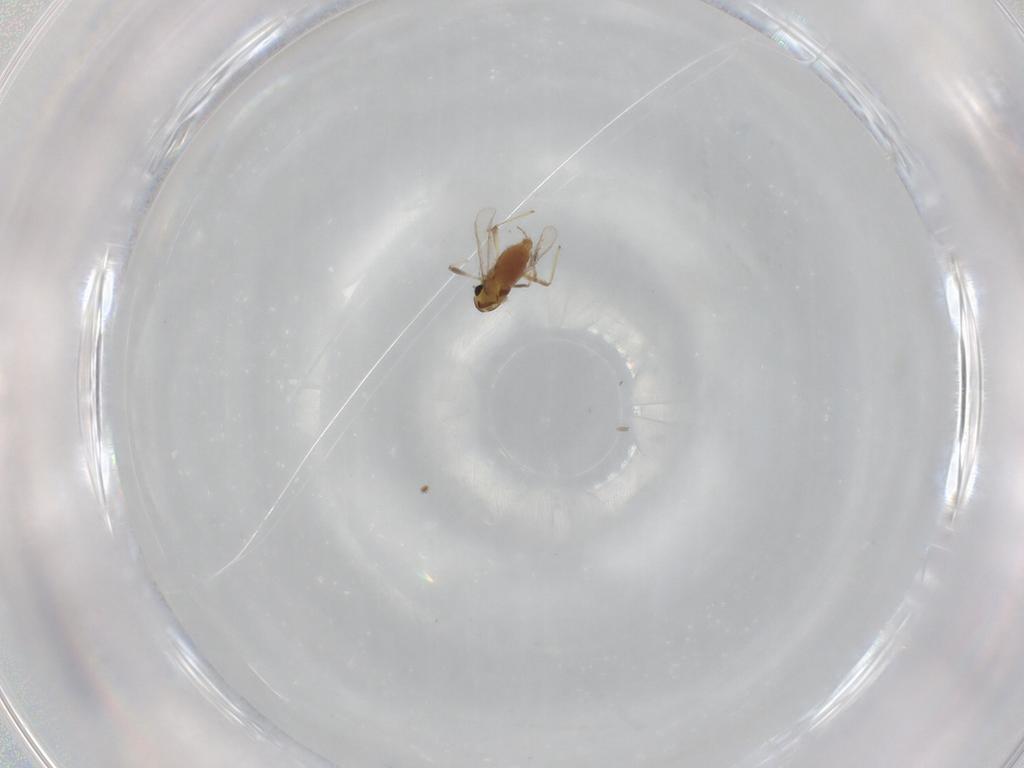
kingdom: Animalia
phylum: Arthropoda
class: Insecta
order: Diptera
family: Chironomidae
